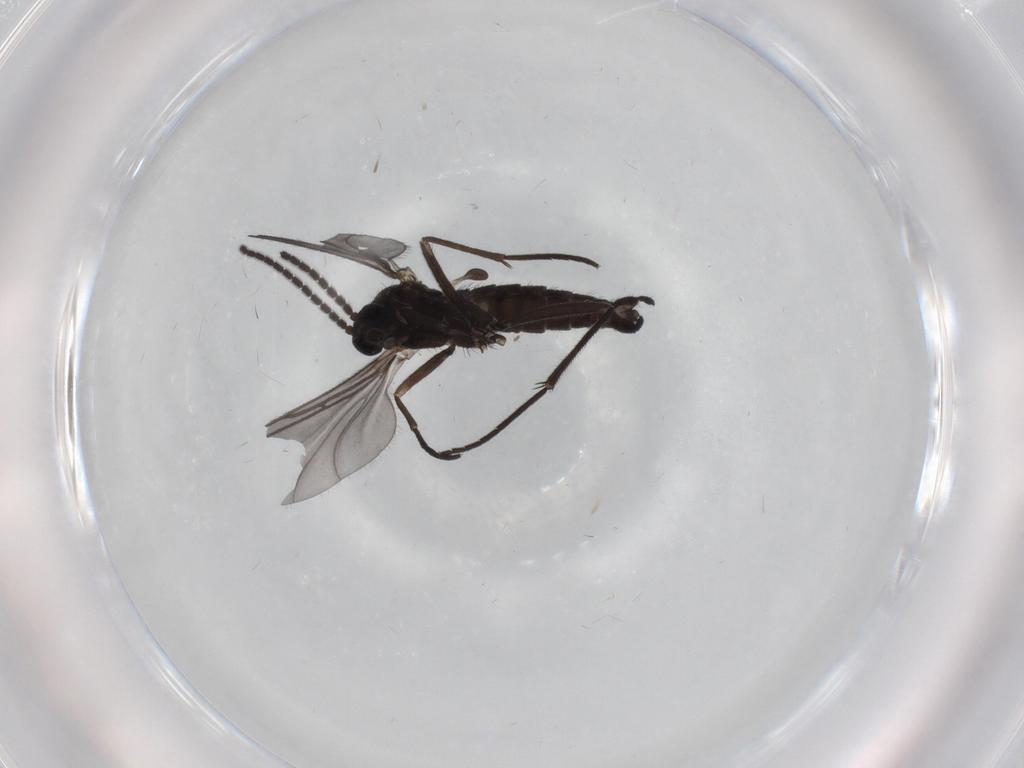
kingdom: Animalia
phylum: Arthropoda
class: Insecta
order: Diptera
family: Sciaridae
